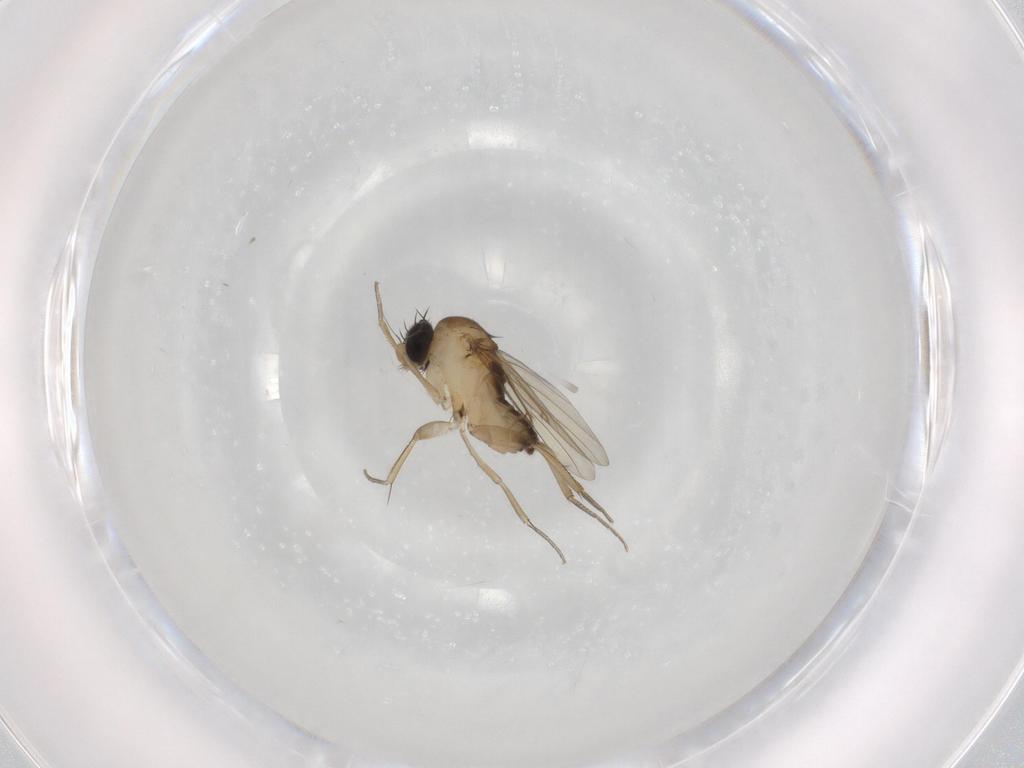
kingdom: Animalia
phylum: Arthropoda
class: Insecta
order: Diptera
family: Phoridae
